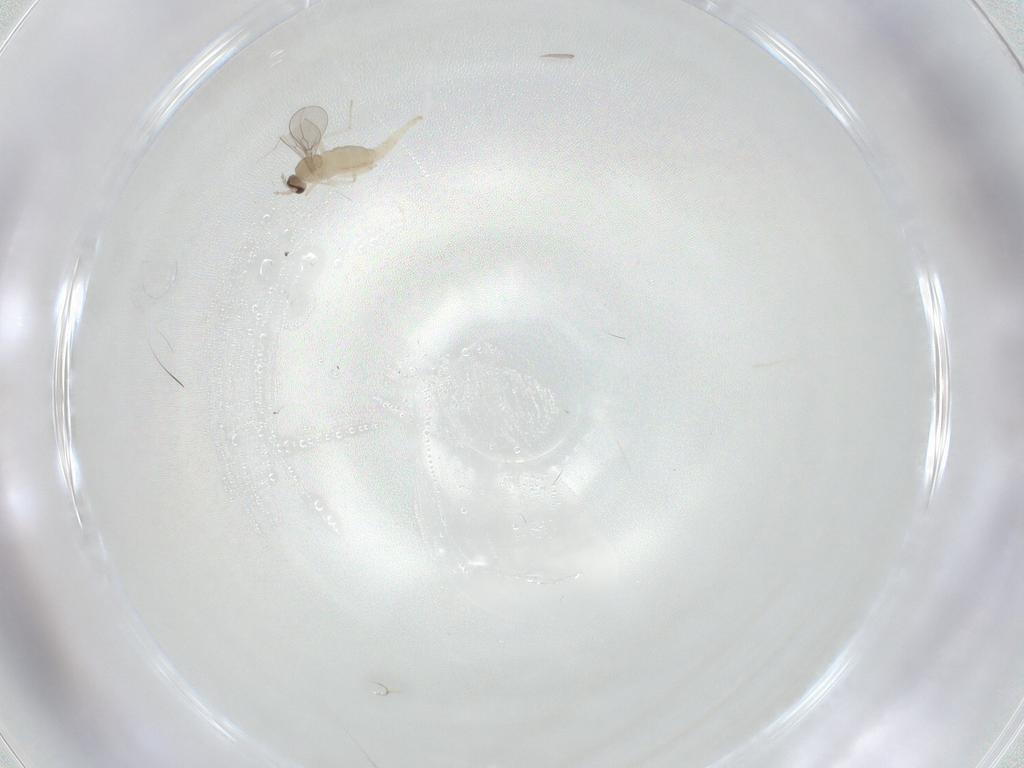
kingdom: Animalia
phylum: Arthropoda
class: Insecta
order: Diptera
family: Cecidomyiidae
